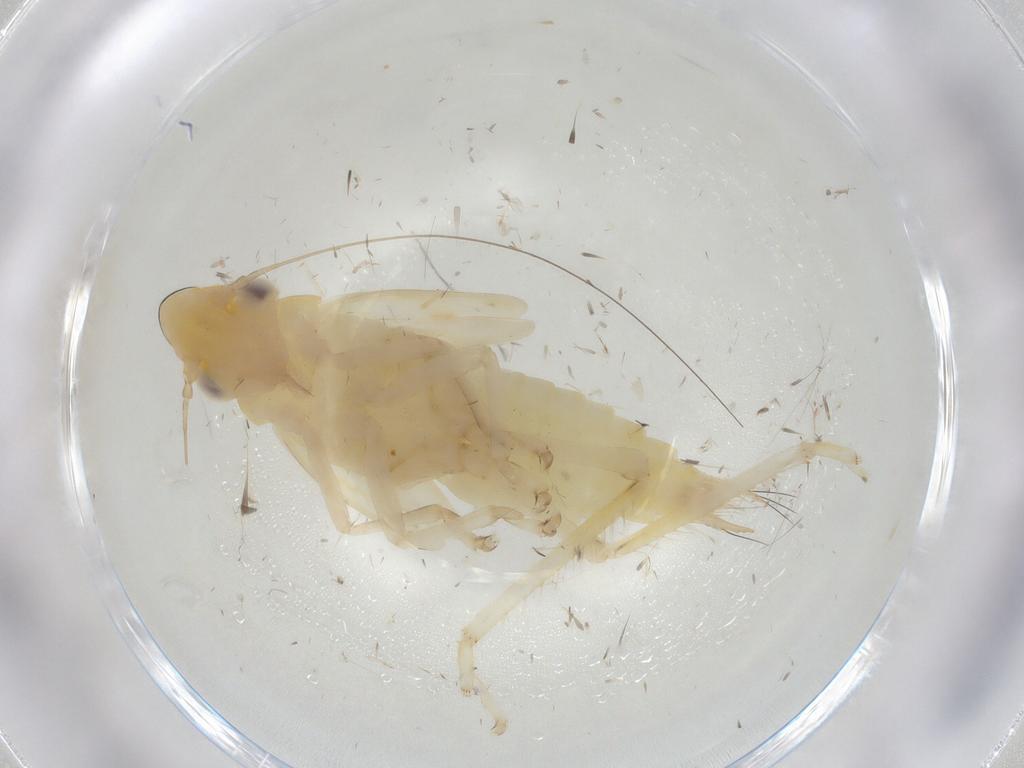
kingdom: Animalia
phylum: Arthropoda
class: Insecta
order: Hemiptera
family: Cicadellidae
